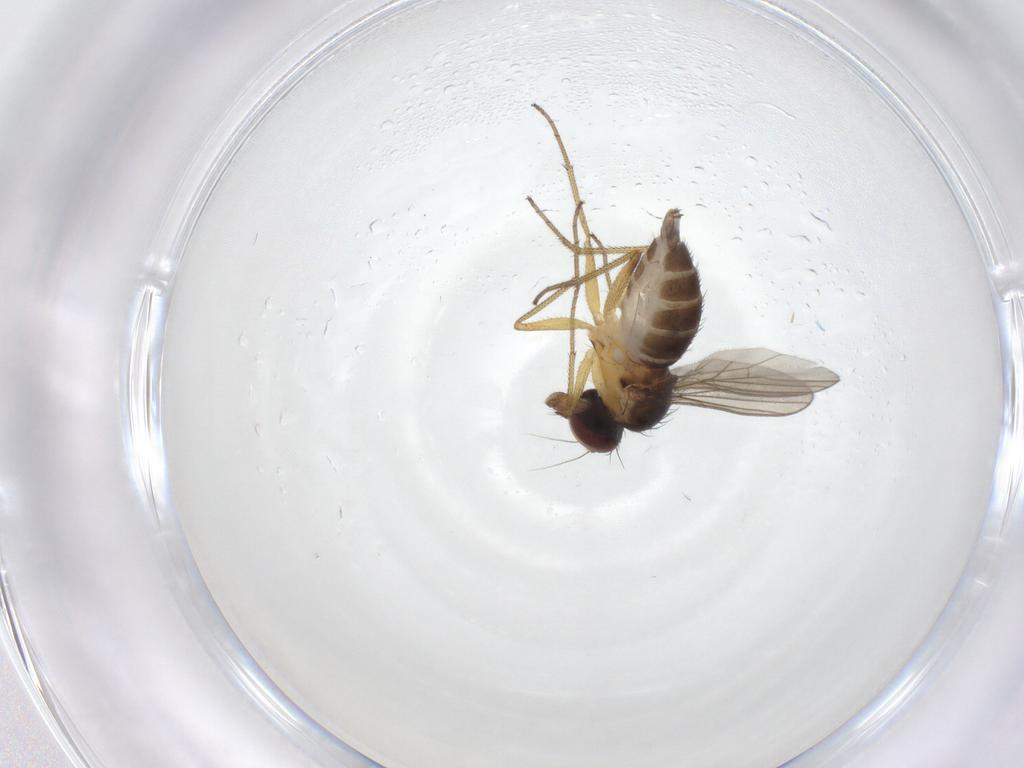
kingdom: Animalia
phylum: Arthropoda
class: Insecta
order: Diptera
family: Dolichopodidae
